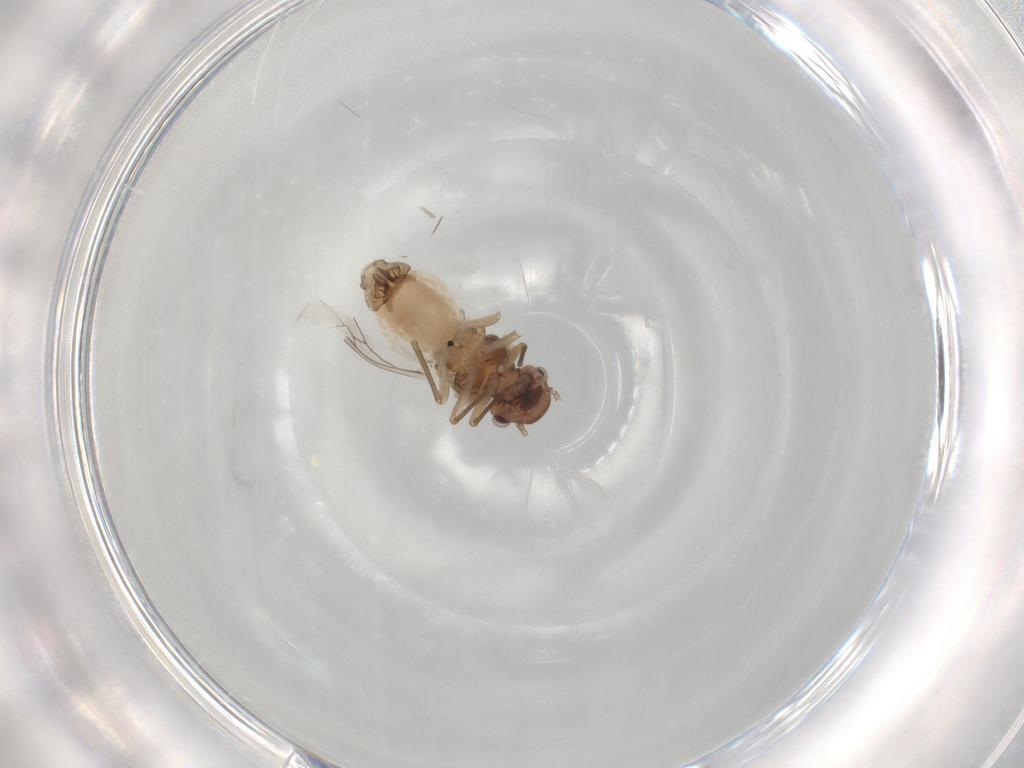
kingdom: Animalia
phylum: Arthropoda
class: Insecta
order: Psocodea
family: Peripsocidae
